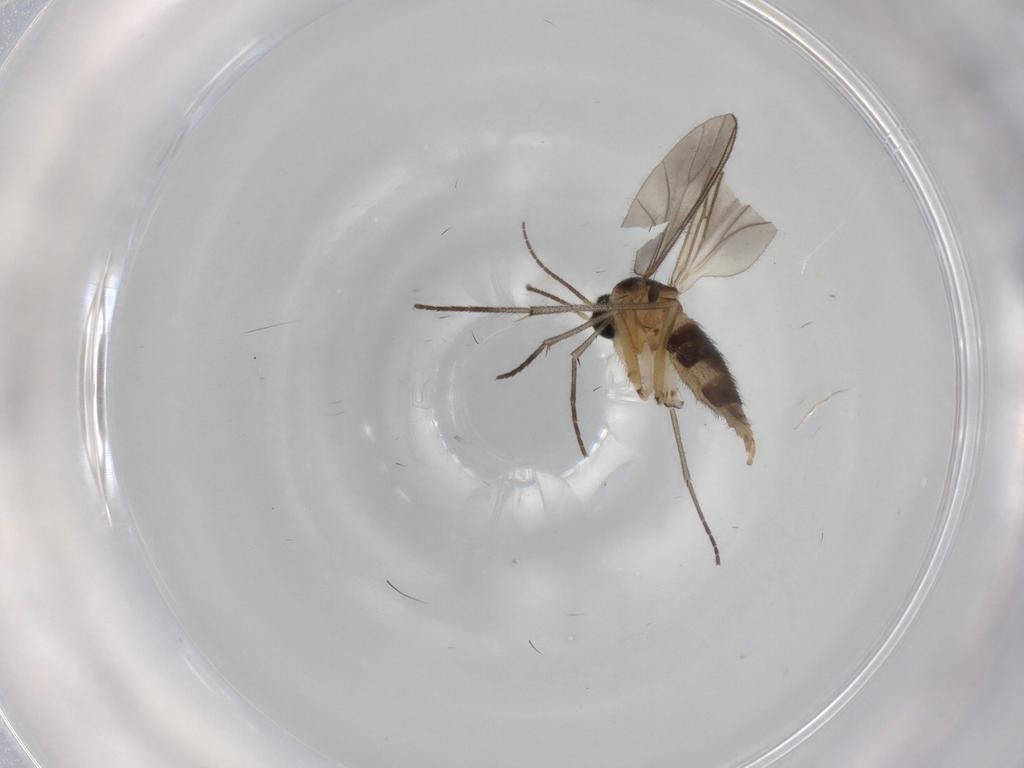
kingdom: Animalia
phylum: Arthropoda
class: Insecta
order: Diptera
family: Sciaridae
